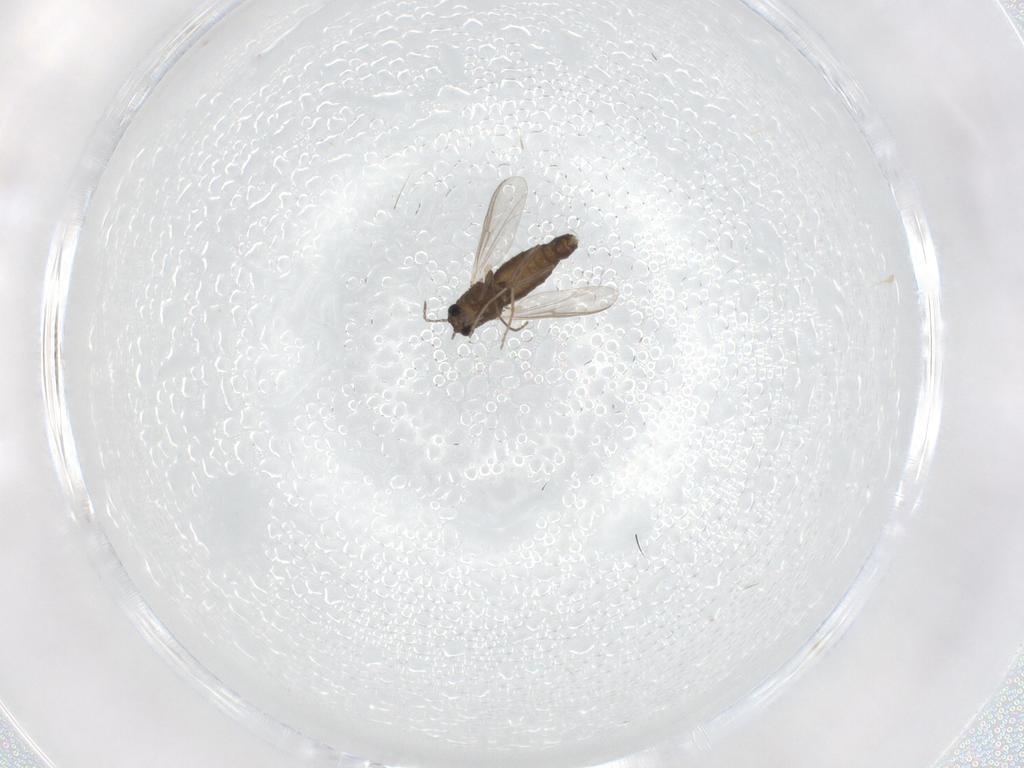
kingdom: Animalia
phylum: Arthropoda
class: Insecta
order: Diptera
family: Chironomidae
